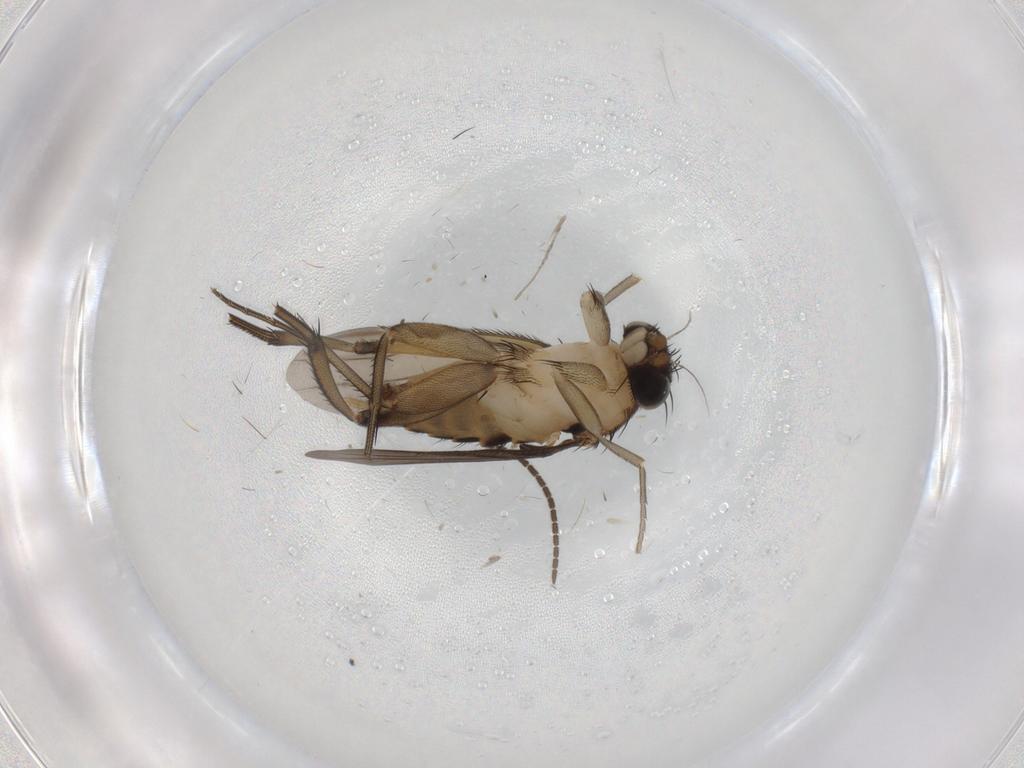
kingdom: Animalia
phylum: Arthropoda
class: Insecta
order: Diptera
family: Phoridae
